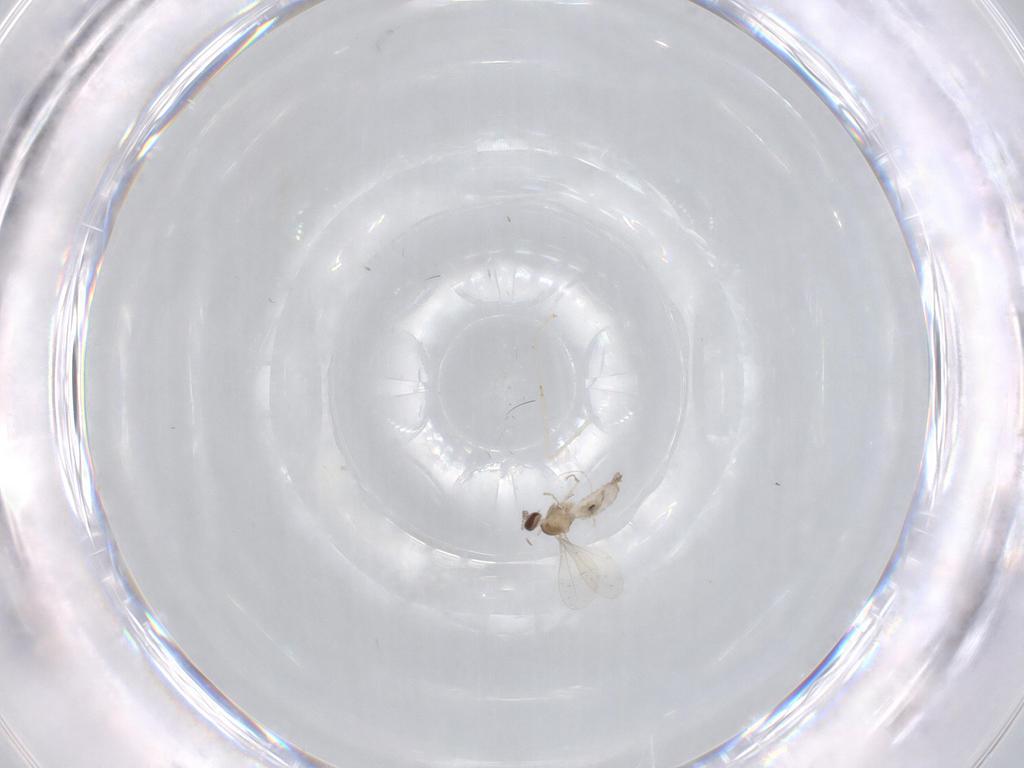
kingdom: Animalia
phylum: Arthropoda
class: Insecta
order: Diptera
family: Cecidomyiidae
